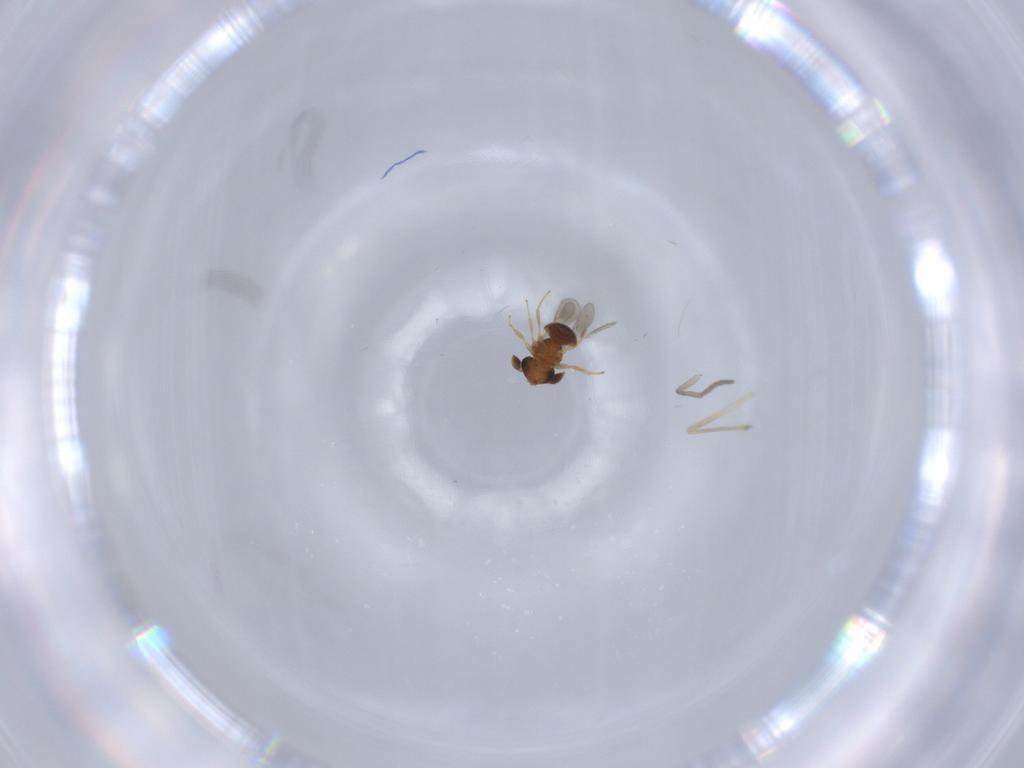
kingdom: Animalia
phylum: Arthropoda
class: Insecta
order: Hymenoptera
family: Scelionidae
